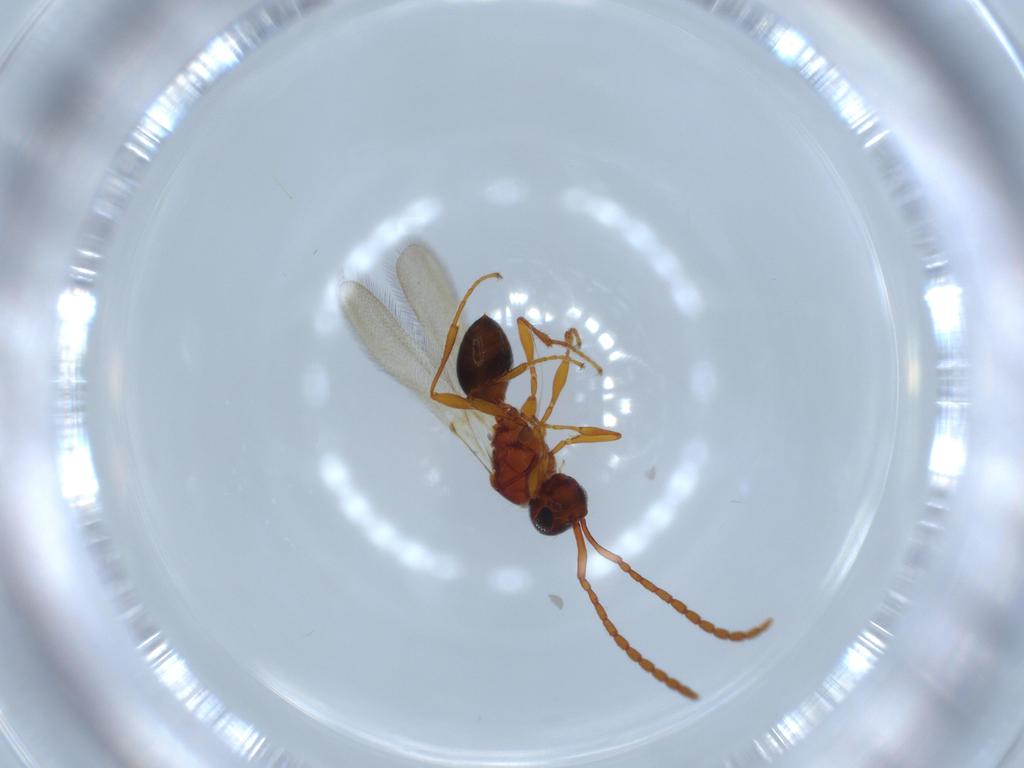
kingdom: Animalia
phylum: Arthropoda
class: Insecta
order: Hymenoptera
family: Diapriidae
